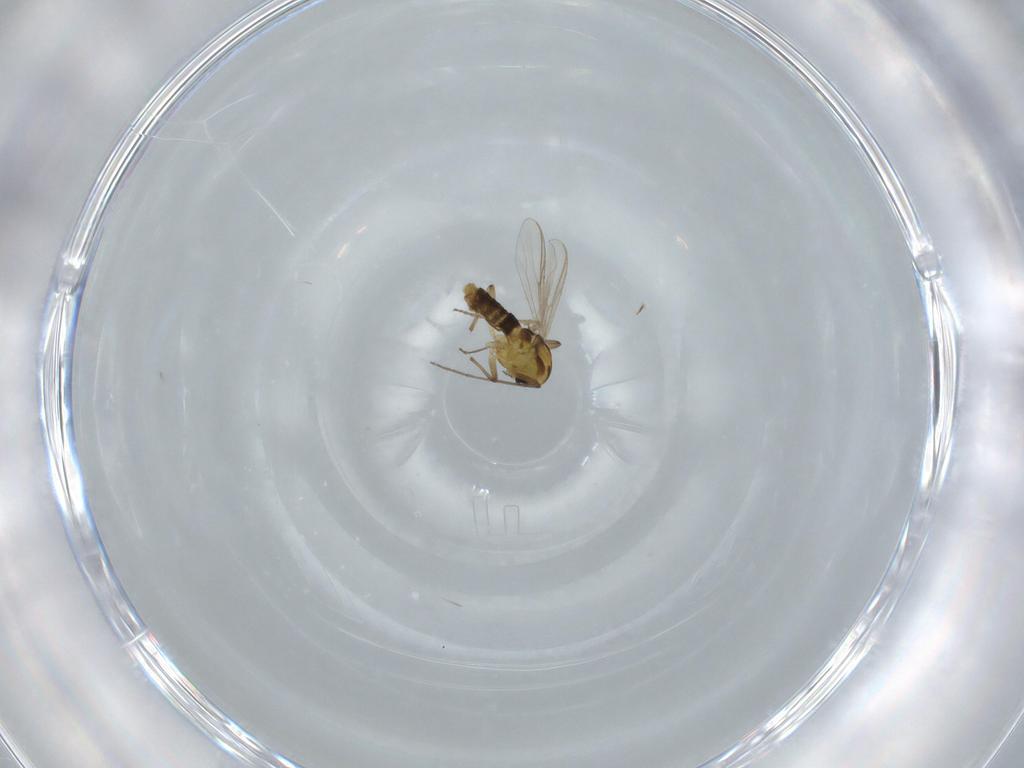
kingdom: Animalia
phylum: Arthropoda
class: Insecta
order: Diptera
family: Chironomidae
